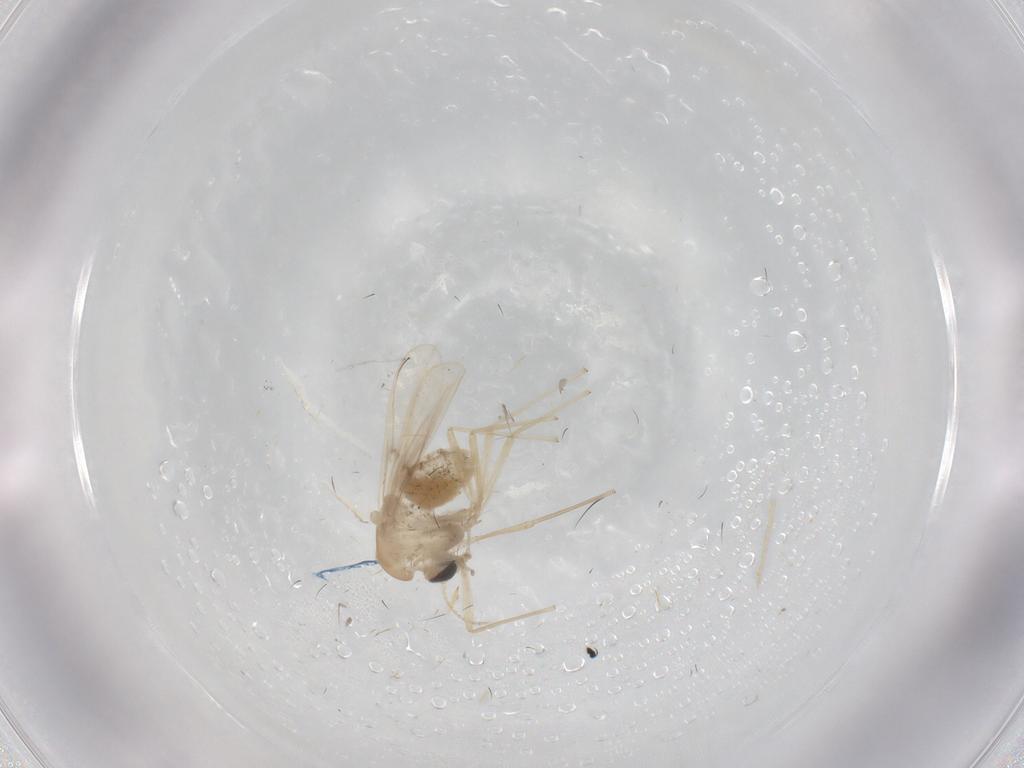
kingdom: Animalia
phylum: Arthropoda
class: Insecta
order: Diptera
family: Chironomidae
